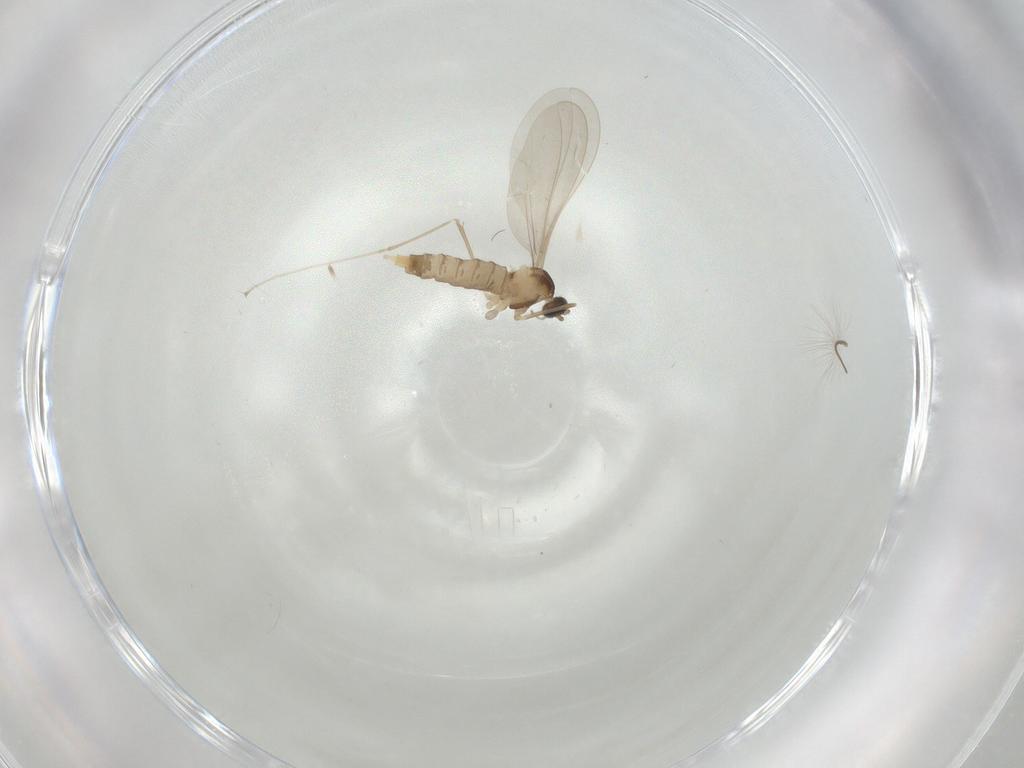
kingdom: Animalia
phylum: Arthropoda
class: Insecta
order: Diptera
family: Cecidomyiidae
